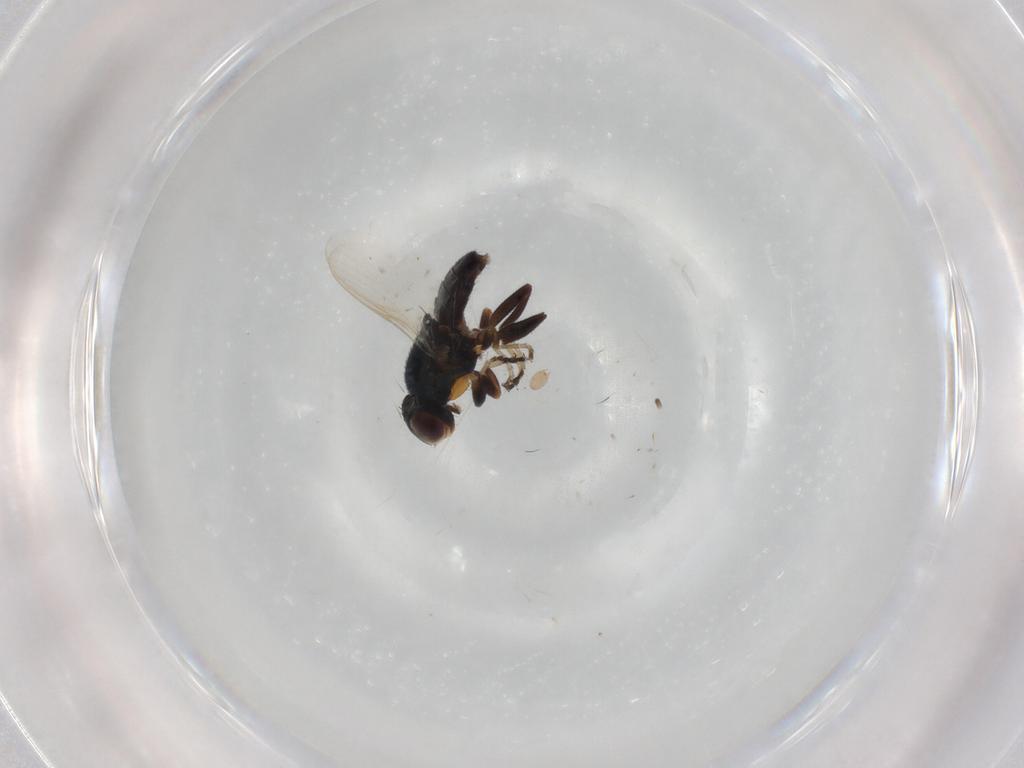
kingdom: Animalia
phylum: Arthropoda
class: Insecta
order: Diptera
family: Chloropidae
